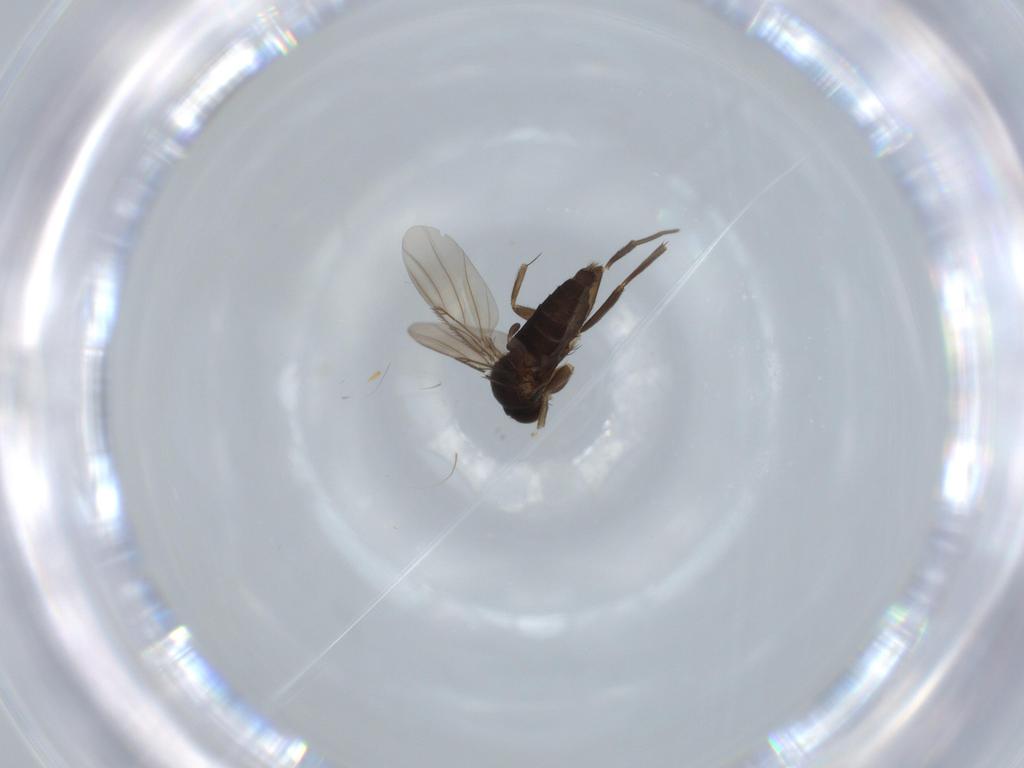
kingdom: Animalia
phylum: Arthropoda
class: Insecta
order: Diptera
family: Phoridae
